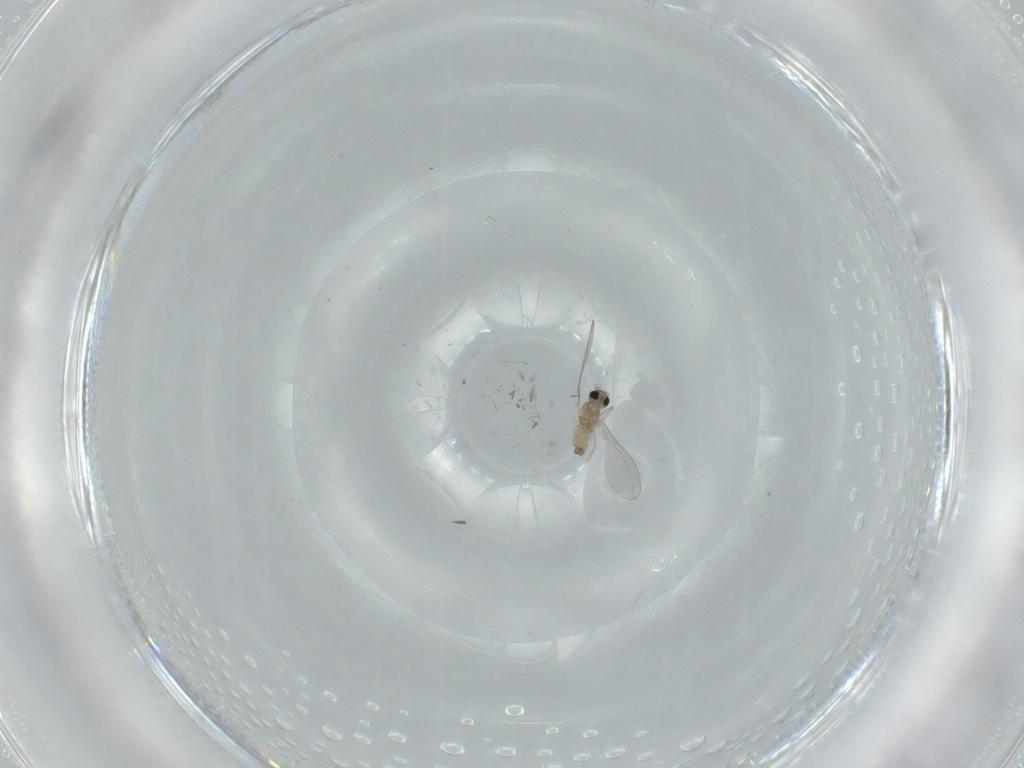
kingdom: Animalia
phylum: Arthropoda
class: Insecta
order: Diptera
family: Cecidomyiidae
